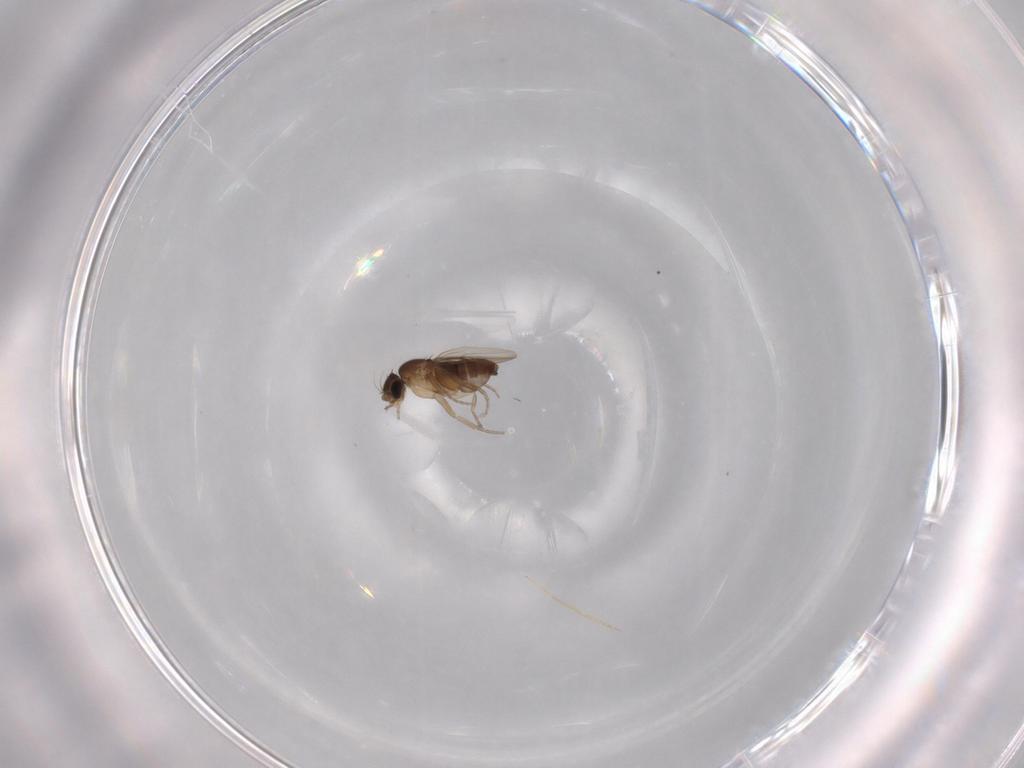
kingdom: Animalia
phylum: Arthropoda
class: Insecta
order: Diptera
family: Phoridae
